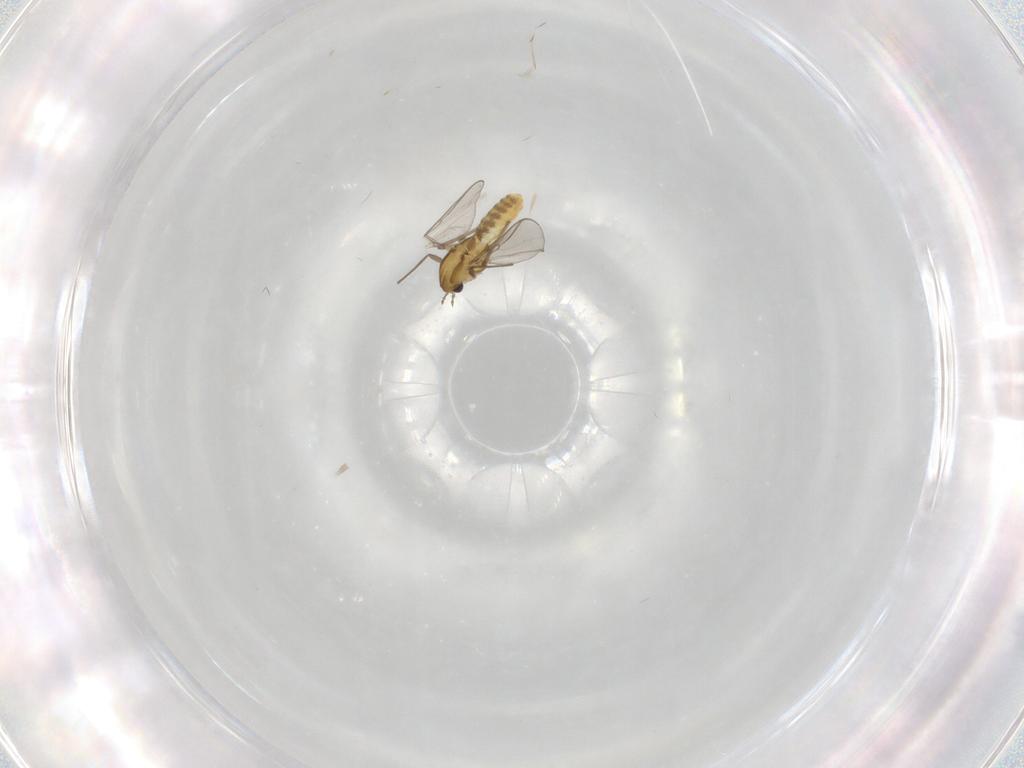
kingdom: Animalia
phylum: Arthropoda
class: Insecta
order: Diptera
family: Chironomidae
